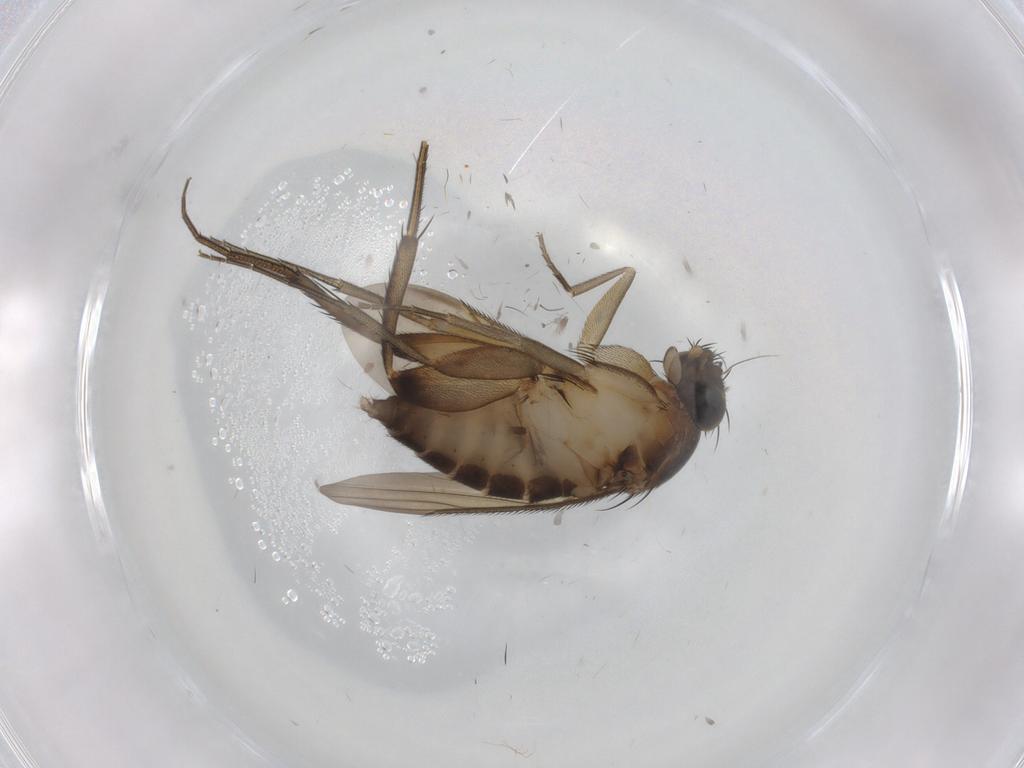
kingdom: Animalia
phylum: Arthropoda
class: Insecta
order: Diptera
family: Phoridae
